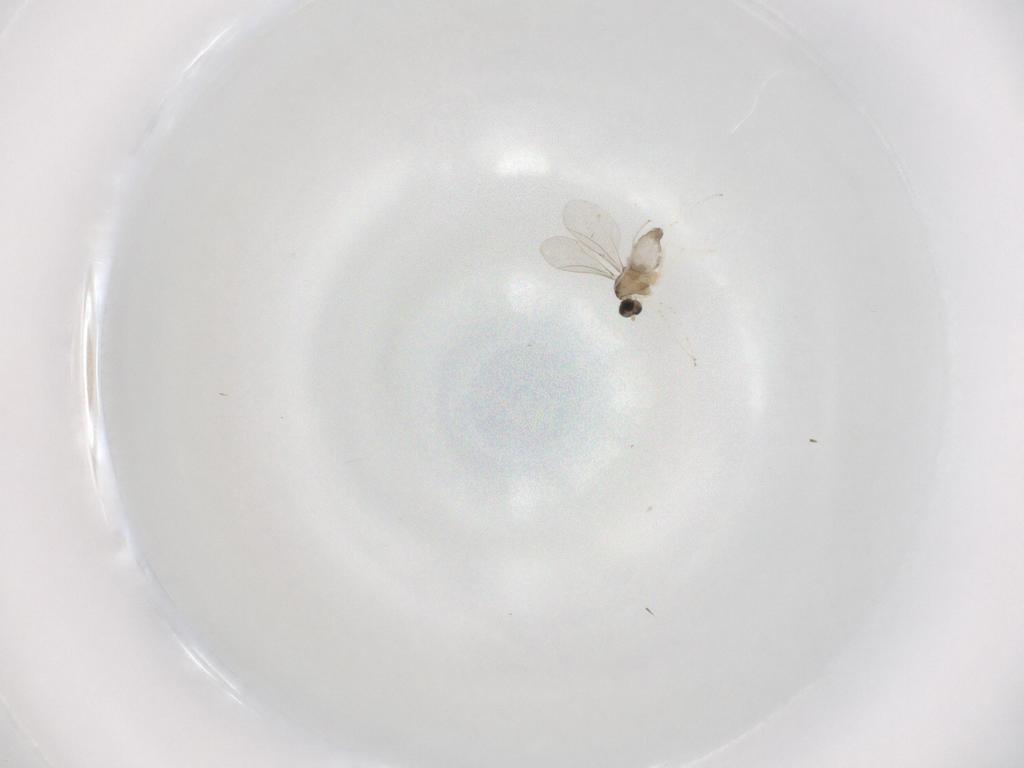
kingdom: Animalia
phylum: Arthropoda
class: Insecta
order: Diptera
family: Cecidomyiidae
